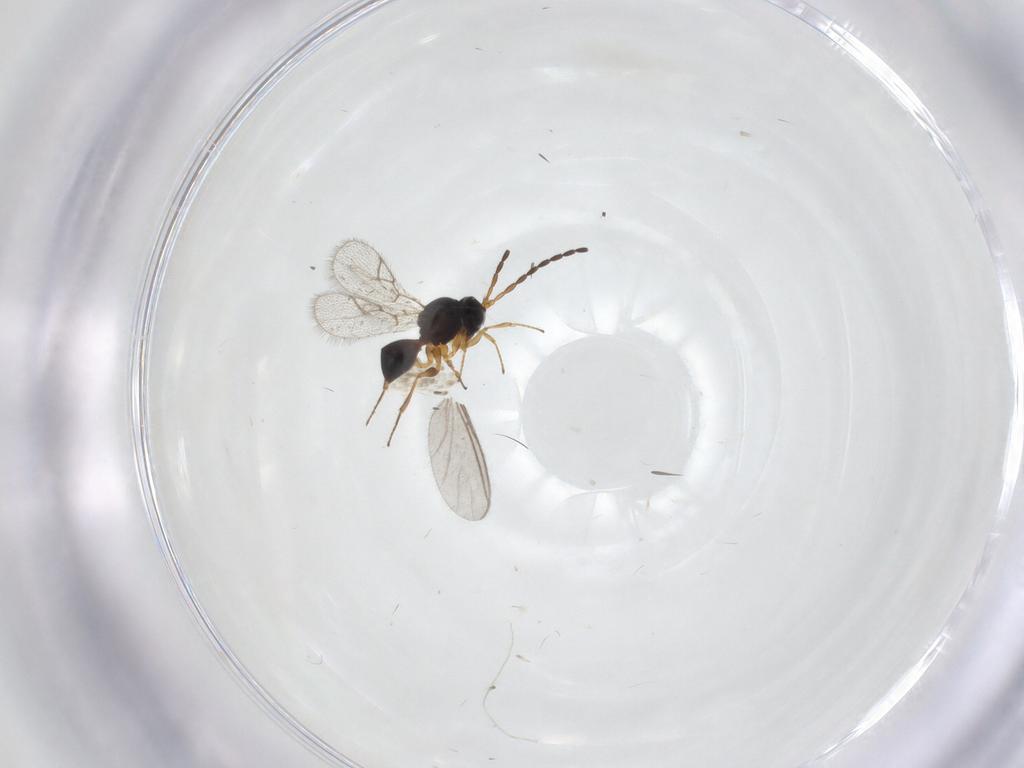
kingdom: Animalia
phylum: Arthropoda
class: Insecta
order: Hymenoptera
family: Figitidae
